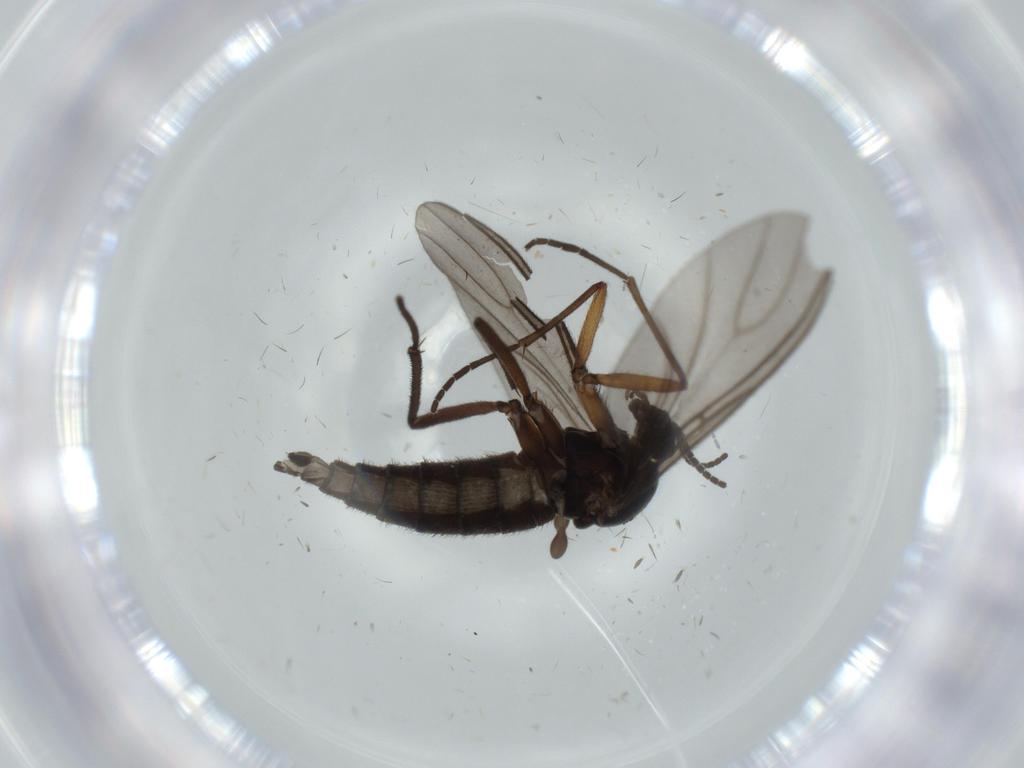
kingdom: Animalia
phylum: Arthropoda
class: Insecta
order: Diptera
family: Sciaridae
